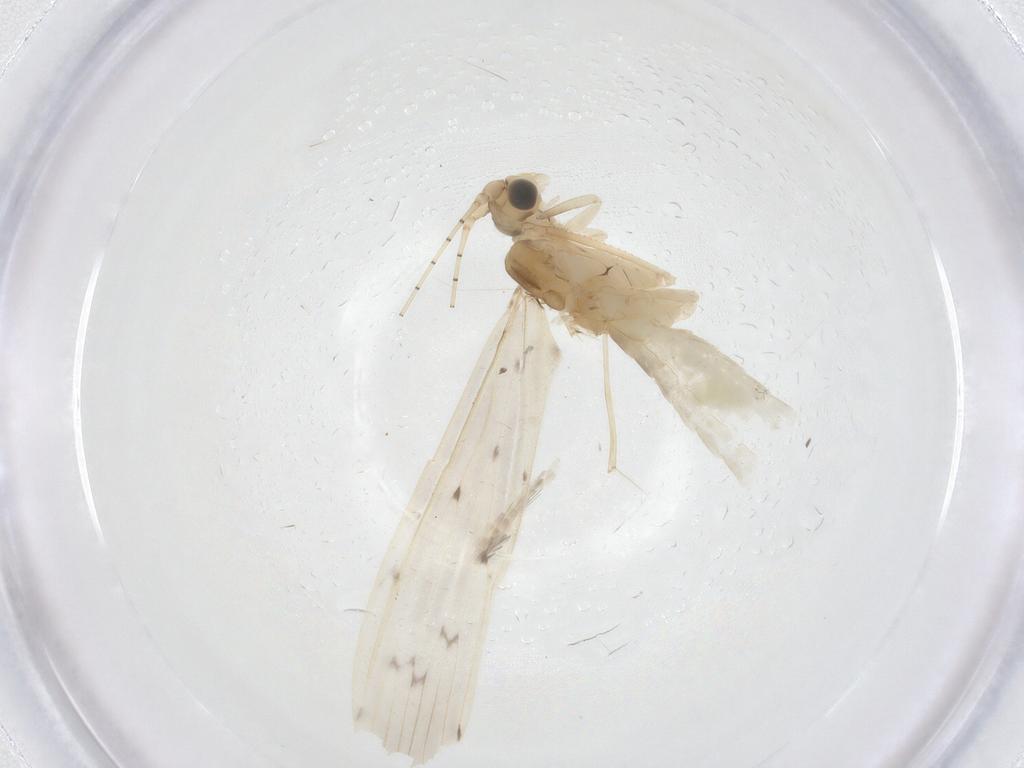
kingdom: Animalia
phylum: Arthropoda
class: Insecta
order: Trichoptera
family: Leptoceridae
